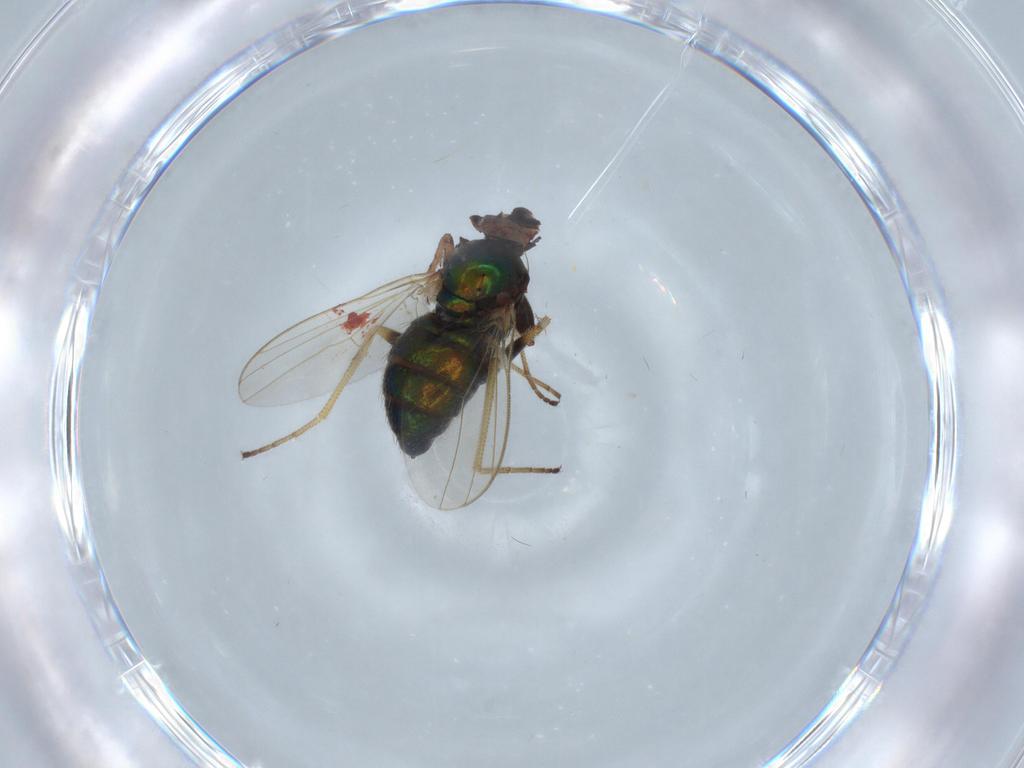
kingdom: Animalia
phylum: Arthropoda
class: Insecta
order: Diptera
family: Dolichopodidae
